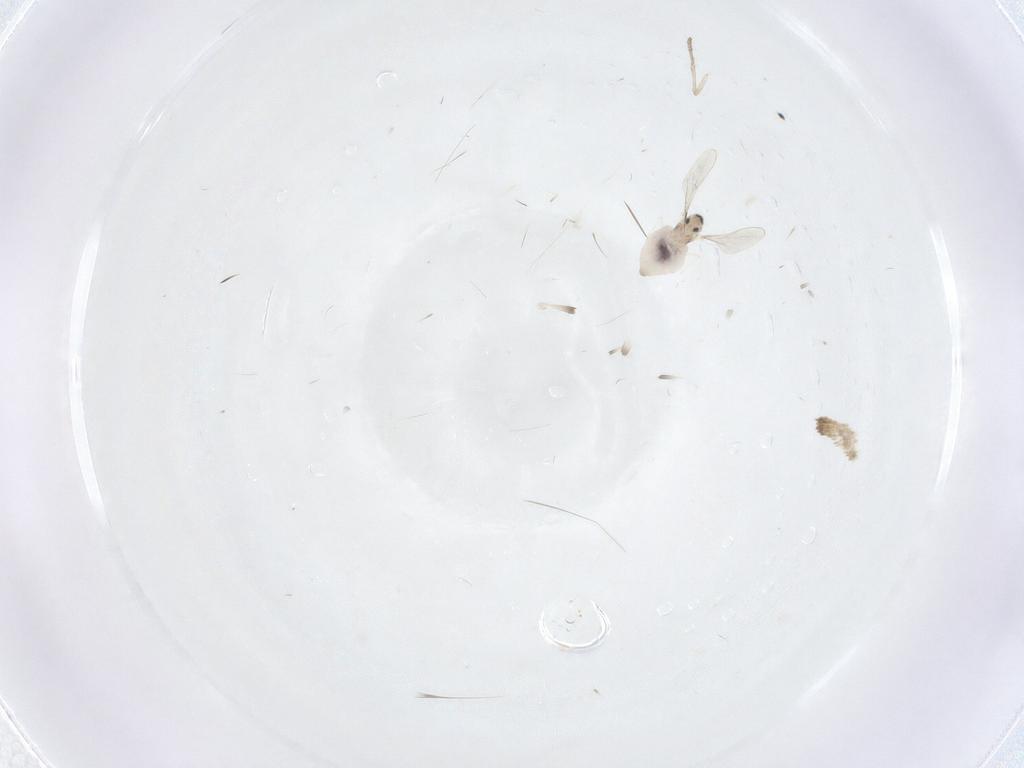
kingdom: Animalia
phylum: Arthropoda
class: Insecta
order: Diptera
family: Cecidomyiidae
